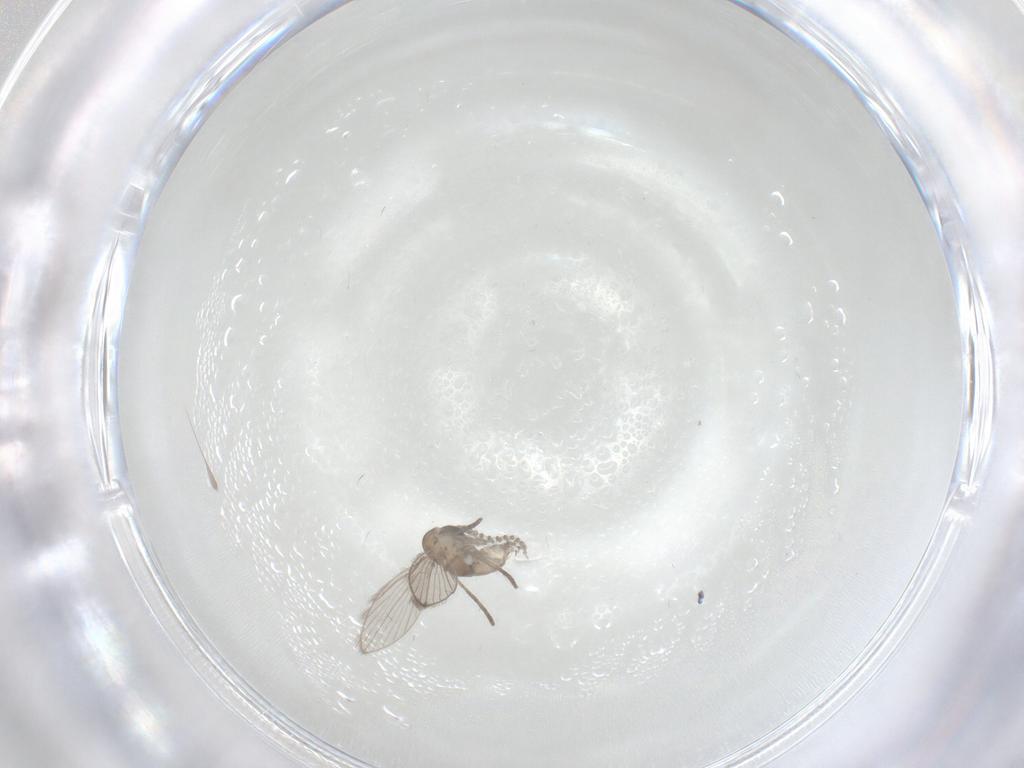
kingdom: Animalia
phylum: Arthropoda
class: Insecta
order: Diptera
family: Psychodidae
